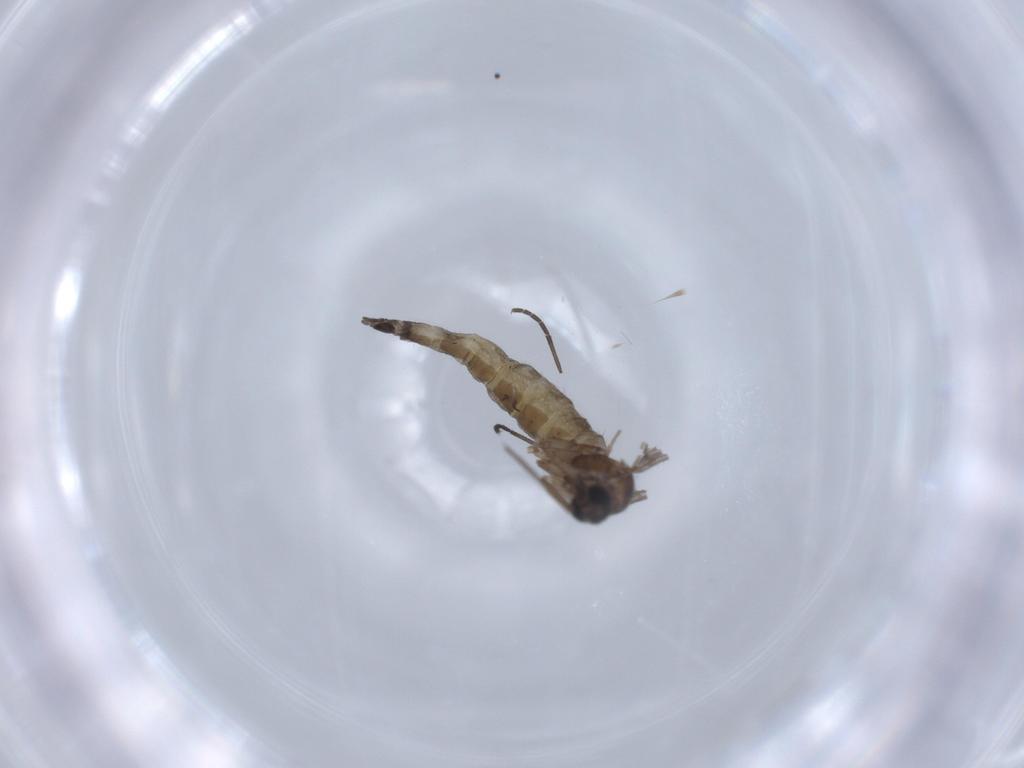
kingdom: Animalia
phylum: Arthropoda
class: Insecta
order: Diptera
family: Sciaridae
